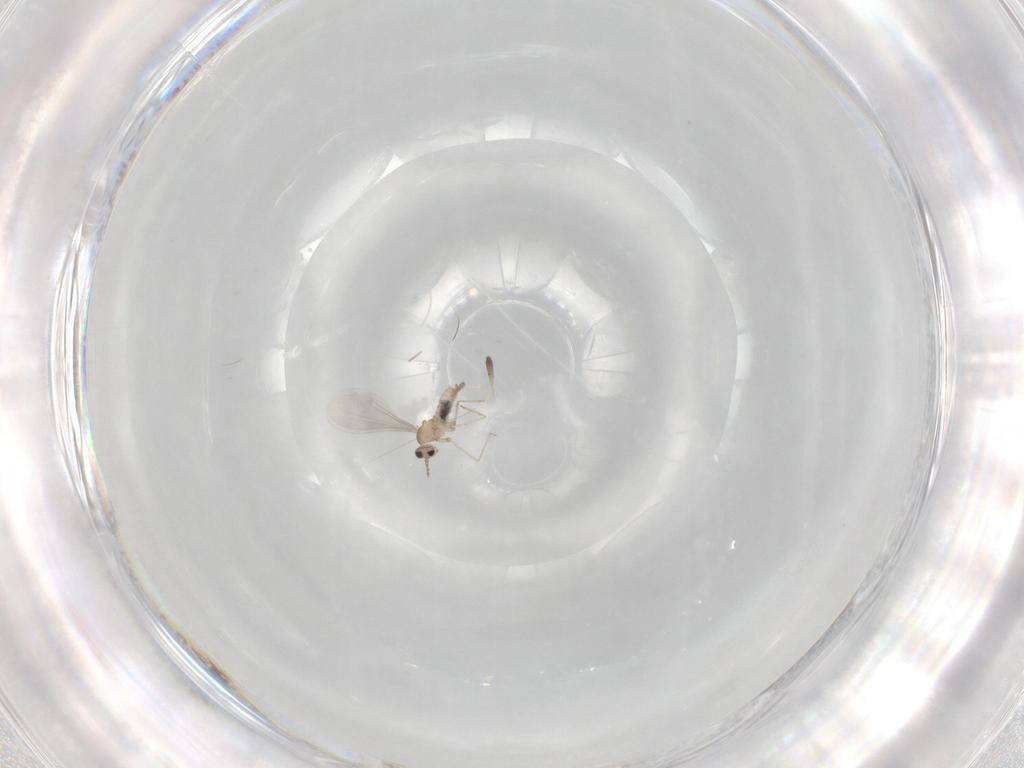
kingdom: Animalia
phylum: Arthropoda
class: Insecta
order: Diptera
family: Cecidomyiidae
